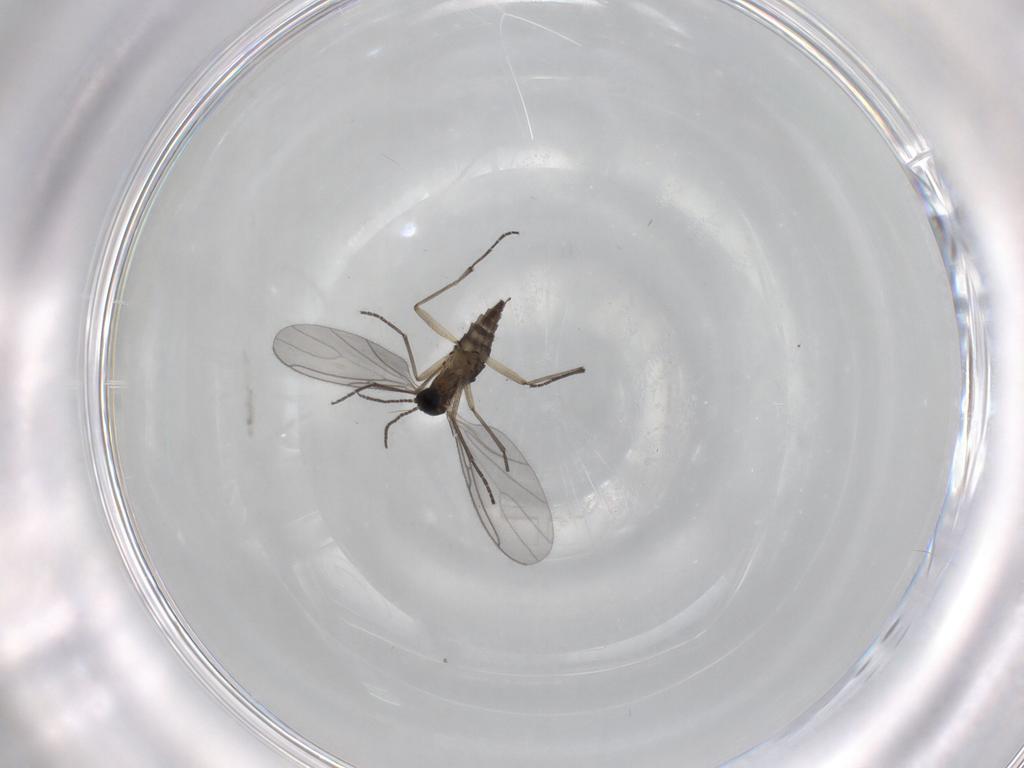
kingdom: Animalia
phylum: Arthropoda
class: Insecta
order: Diptera
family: Sciaridae
